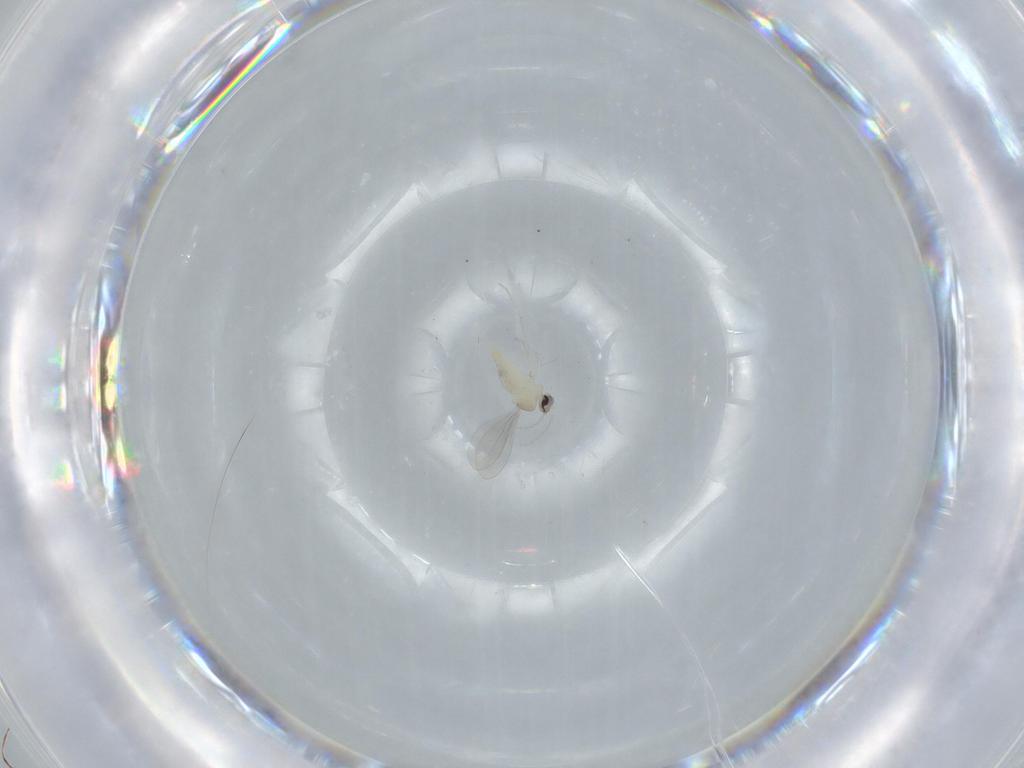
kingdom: Animalia
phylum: Arthropoda
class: Insecta
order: Diptera
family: Cecidomyiidae
